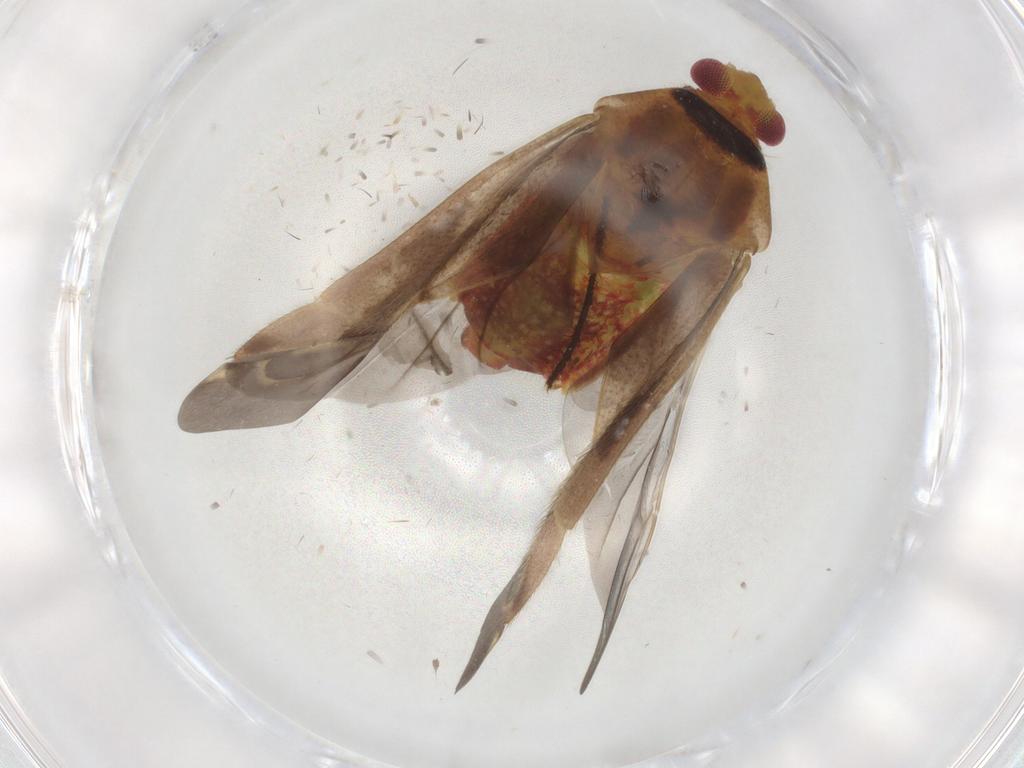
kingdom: Animalia
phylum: Arthropoda
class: Insecta
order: Hemiptera
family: Miridae
